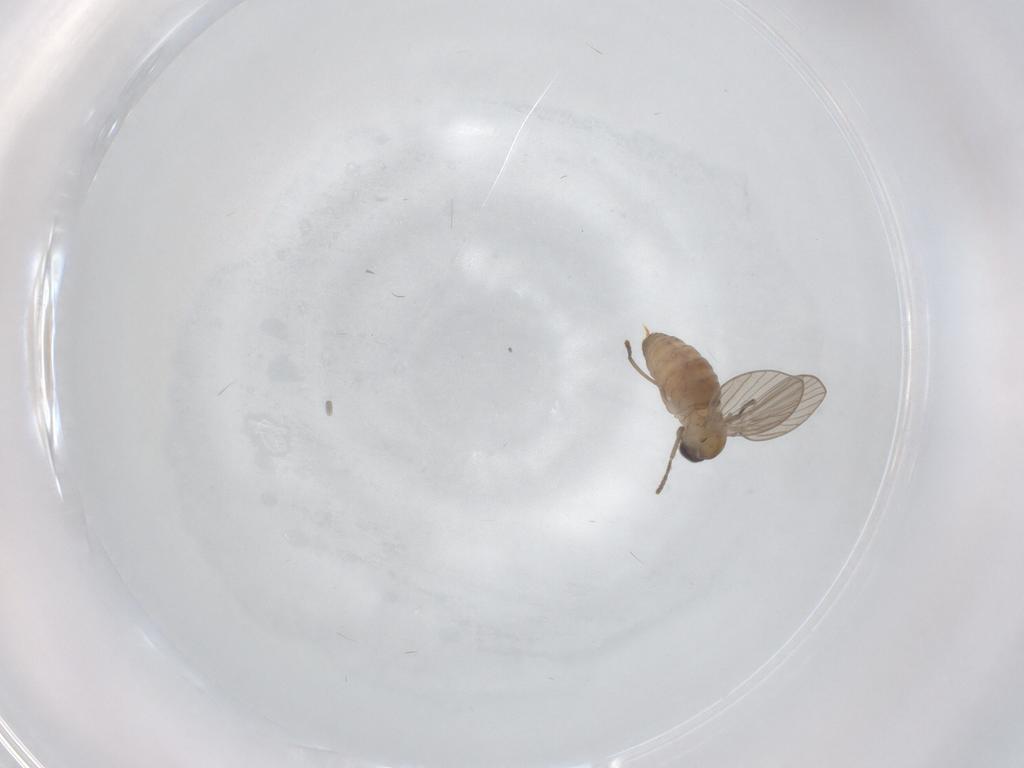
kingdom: Animalia
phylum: Arthropoda
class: Insecta
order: Diptera
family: Psychodidae
